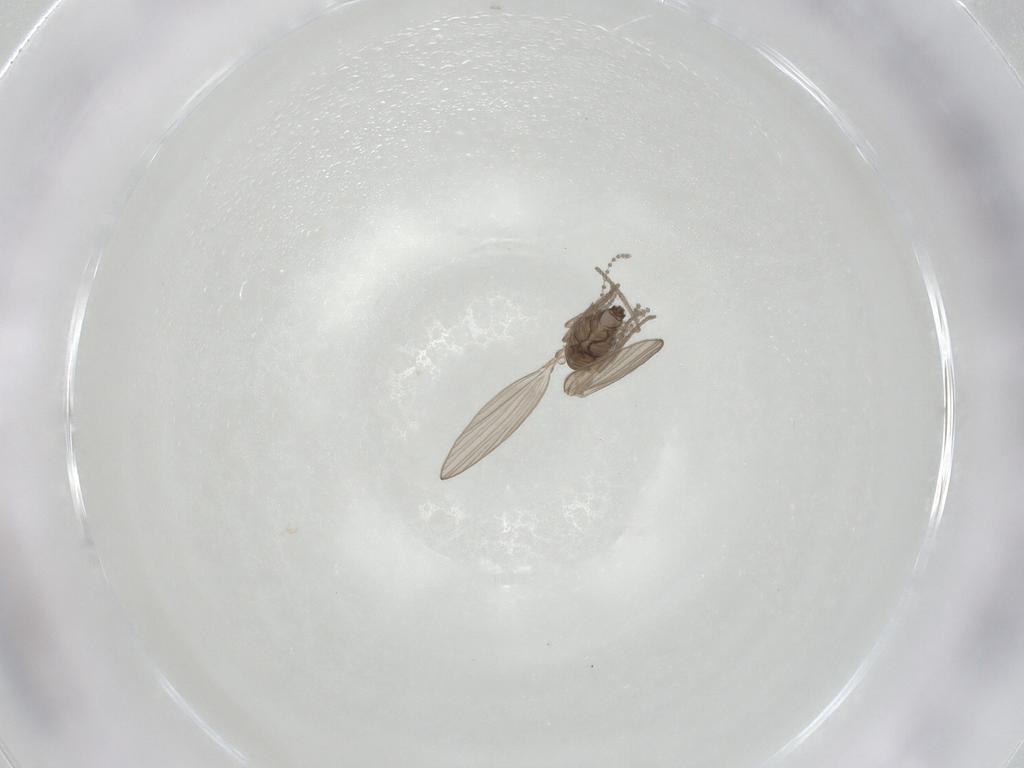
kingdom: Animalia
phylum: Arthropoda
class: Insecta
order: Diptera
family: Psychodidae
